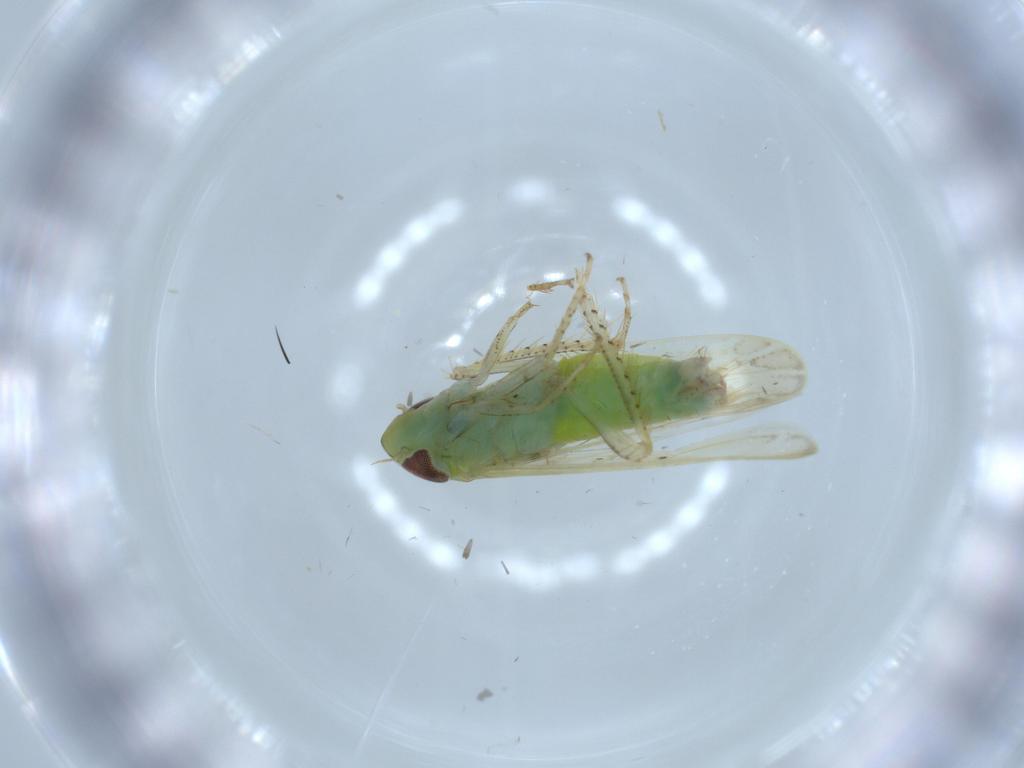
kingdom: Animalia
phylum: Arthropoda
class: Insecta
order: Hemiptera
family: Cicadellidae
